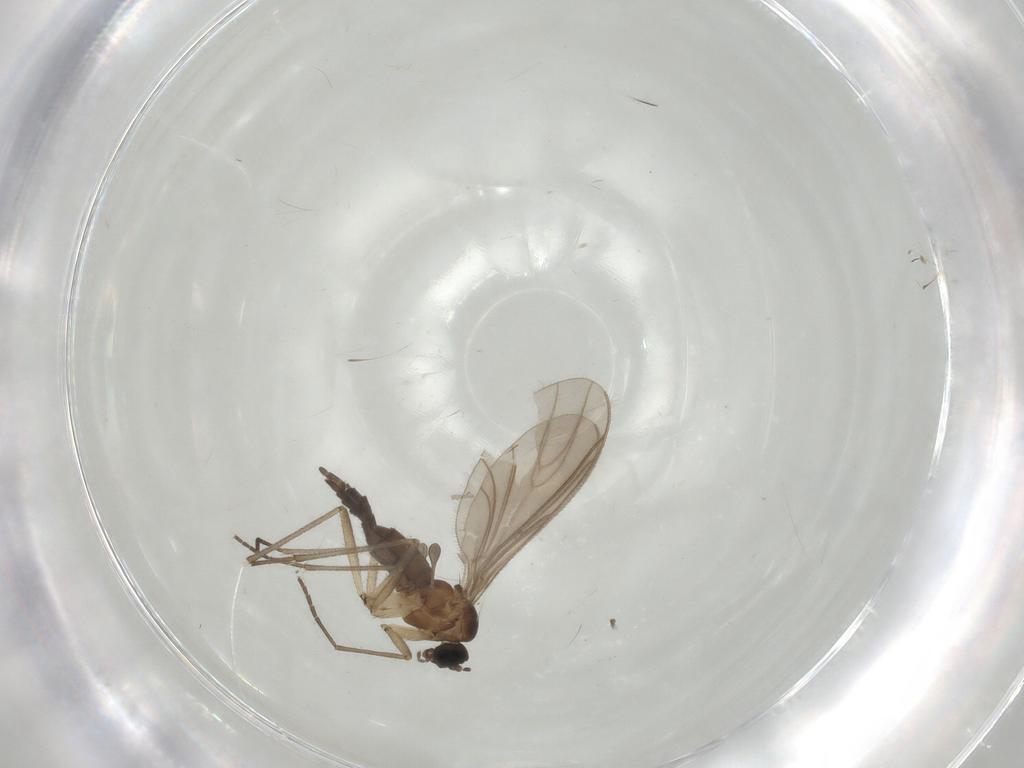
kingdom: Animalia
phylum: Arthropoda
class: Insecta
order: Diptera
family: Sciaridae
